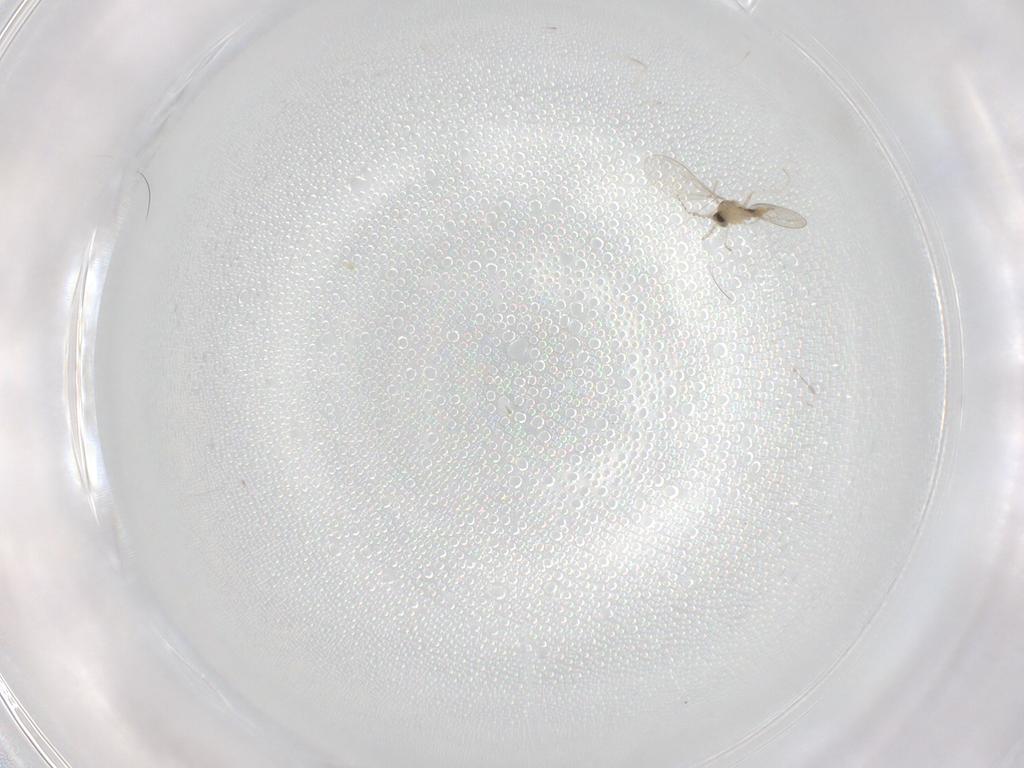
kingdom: Animalia
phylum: Arthropoda
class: Insecta
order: Diptera
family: Cecidomyiidae
